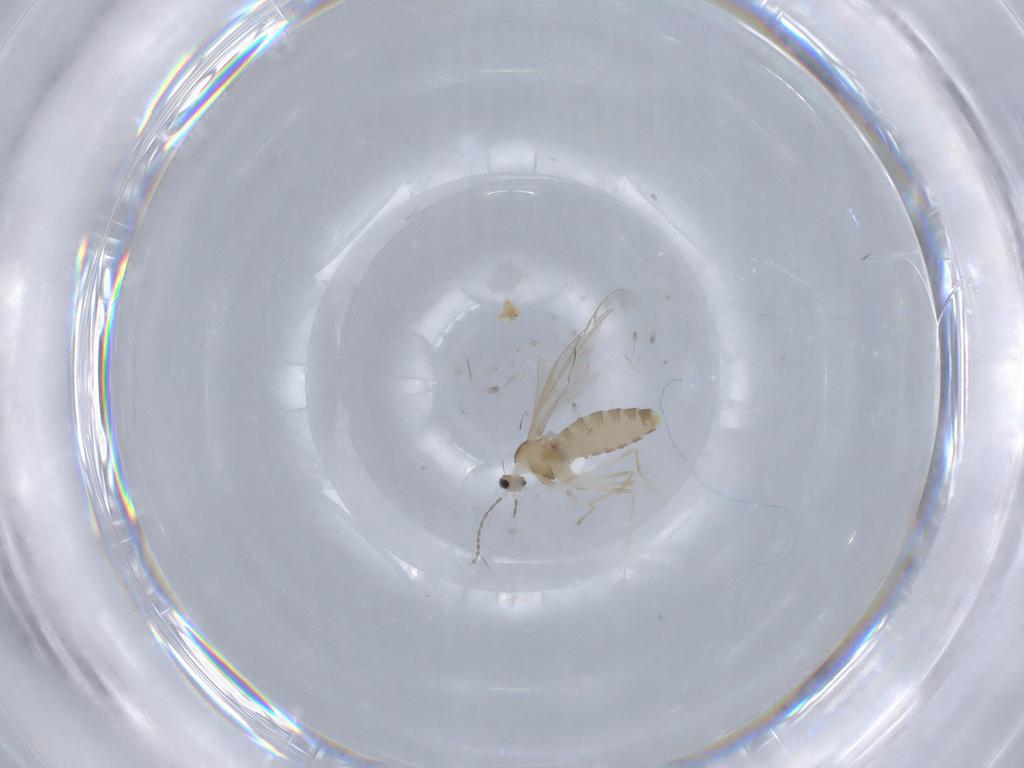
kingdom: Animalia
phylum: Arthropoda
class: Insecta
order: Diptera
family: Cecidomyiidae
